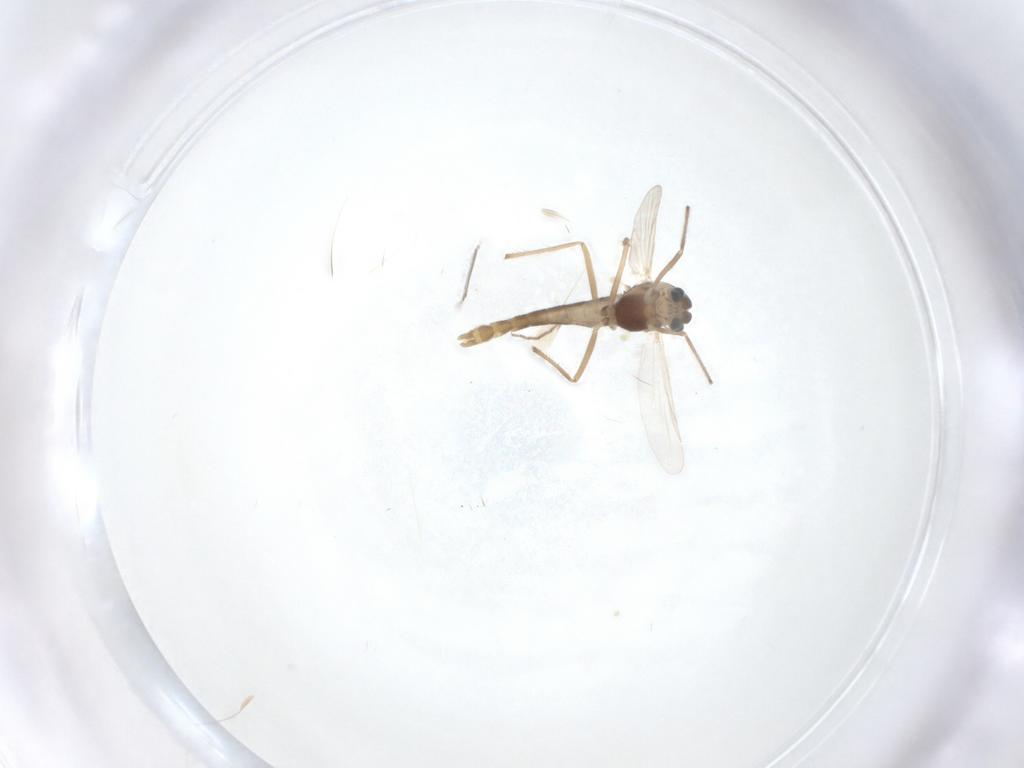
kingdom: Animalia
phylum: Arthropoda
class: Insecta
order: Diptera
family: Chironomidae
